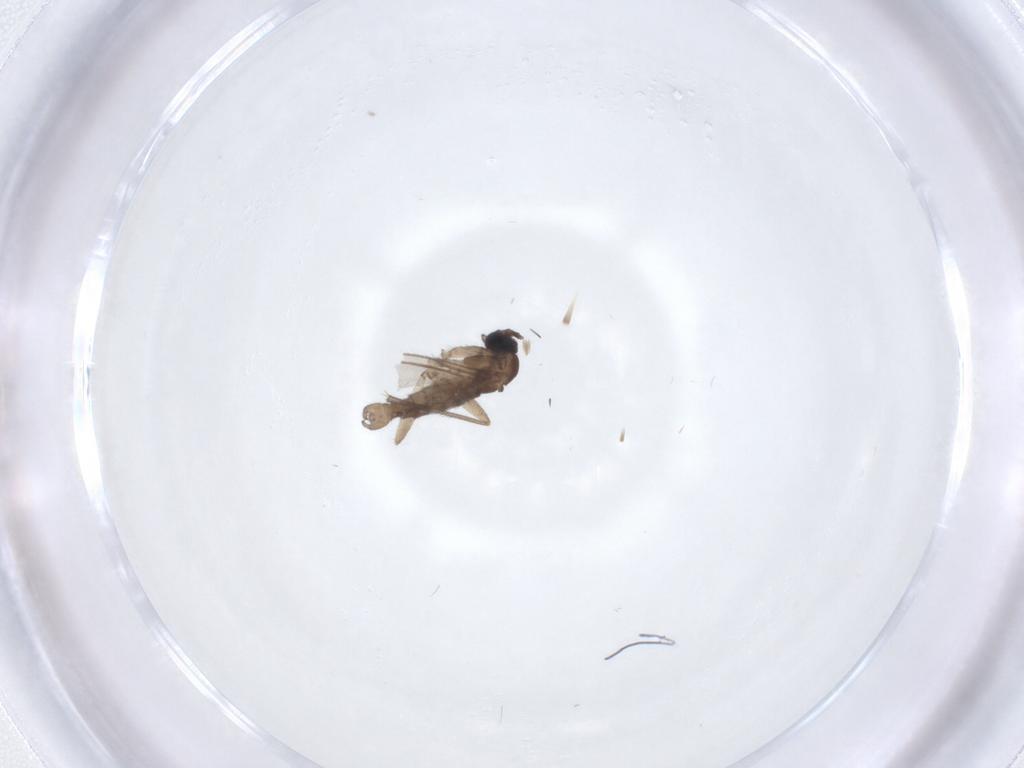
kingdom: Animalia
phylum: Arthropoda
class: Insecta
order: Diptera
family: Sciaridae
